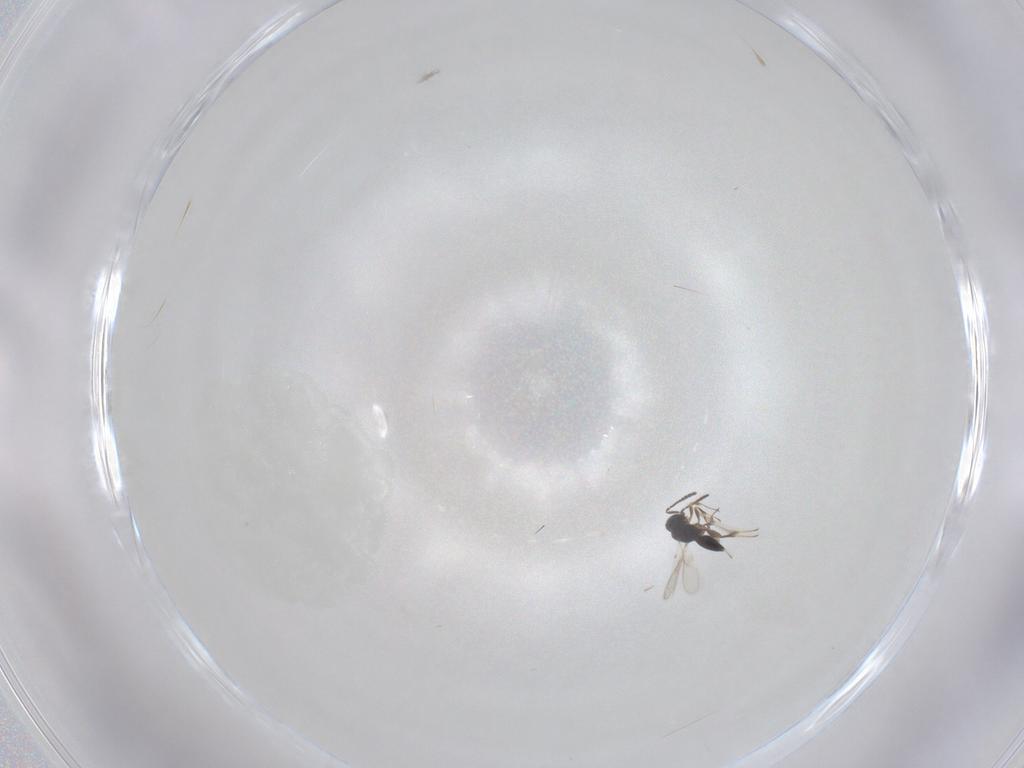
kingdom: Animalia
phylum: Arthropoda
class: Insecta
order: Hymenoptera
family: Scelionidae
